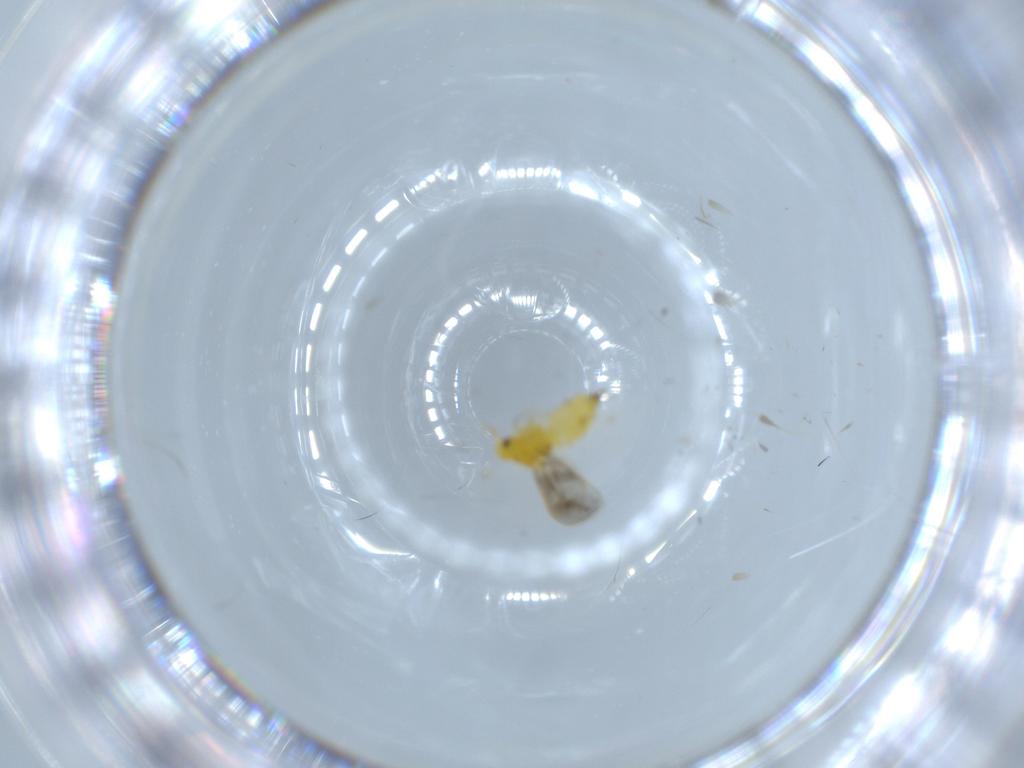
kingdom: Animalia
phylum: Arthropoda
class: Insecta
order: Hemiptera
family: Aleyrodidae
